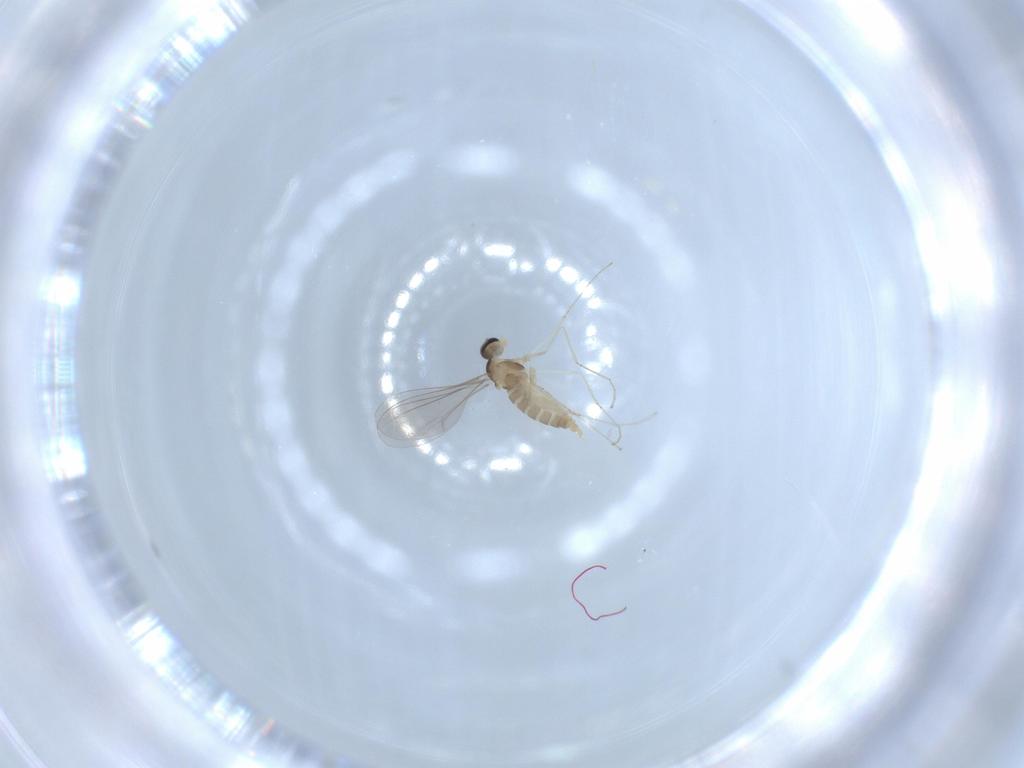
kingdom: Animalia
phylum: Arthropoda
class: Insecta
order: Diptera
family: Cecidomyiidae
